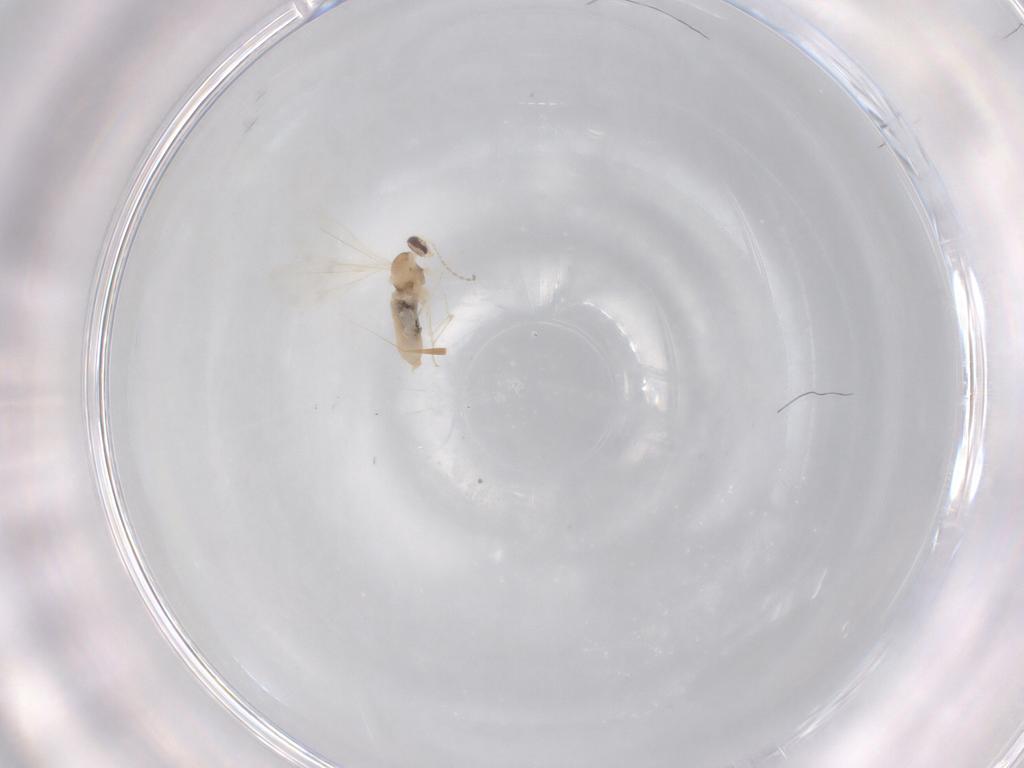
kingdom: Animalia
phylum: Arthropoda
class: Insecta
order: Diptera
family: Cecidomyiidae
